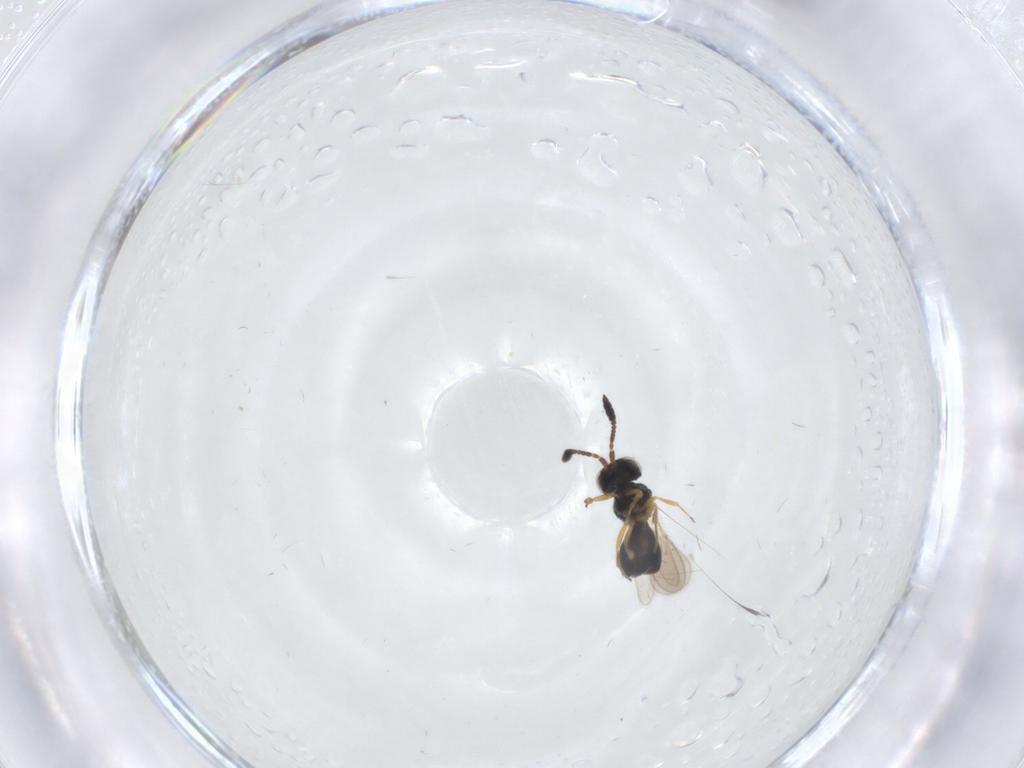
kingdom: Animalia
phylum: Arthropoda
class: Insecta
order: Hymenoptera
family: Scelionidae
